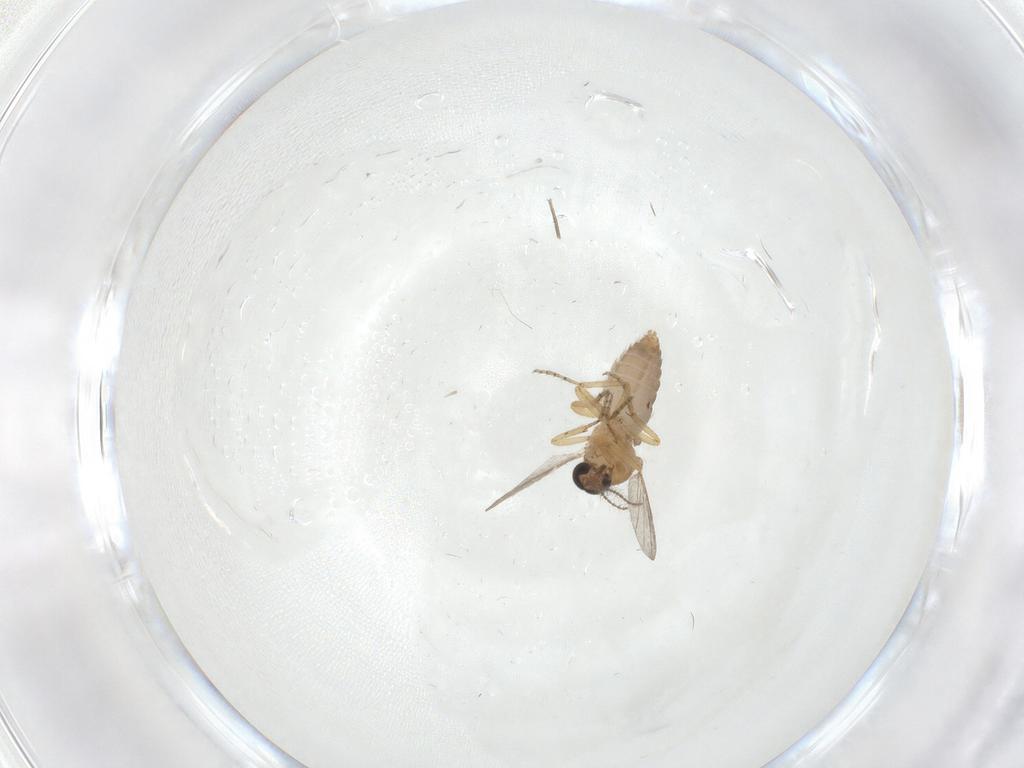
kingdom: Animalia
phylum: Arthropoda
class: Insecta
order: Diptera
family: Ceratopogonidae
